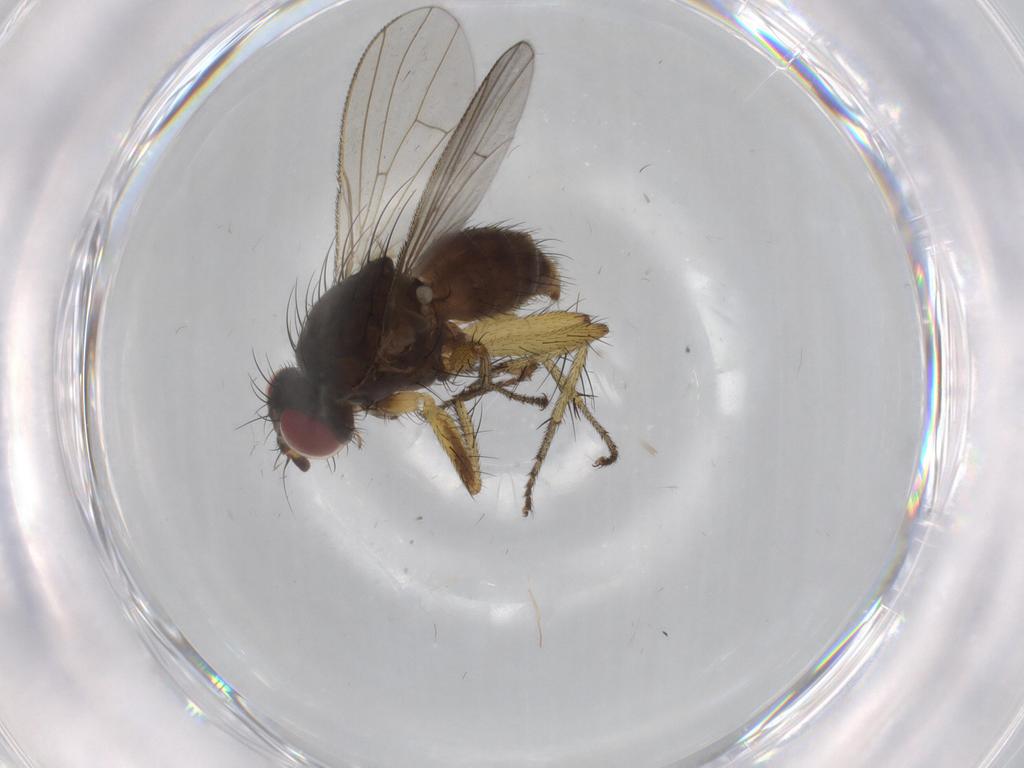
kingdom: Animalia
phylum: Arthropoda
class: Insecta
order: Diptera
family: Muscidae
